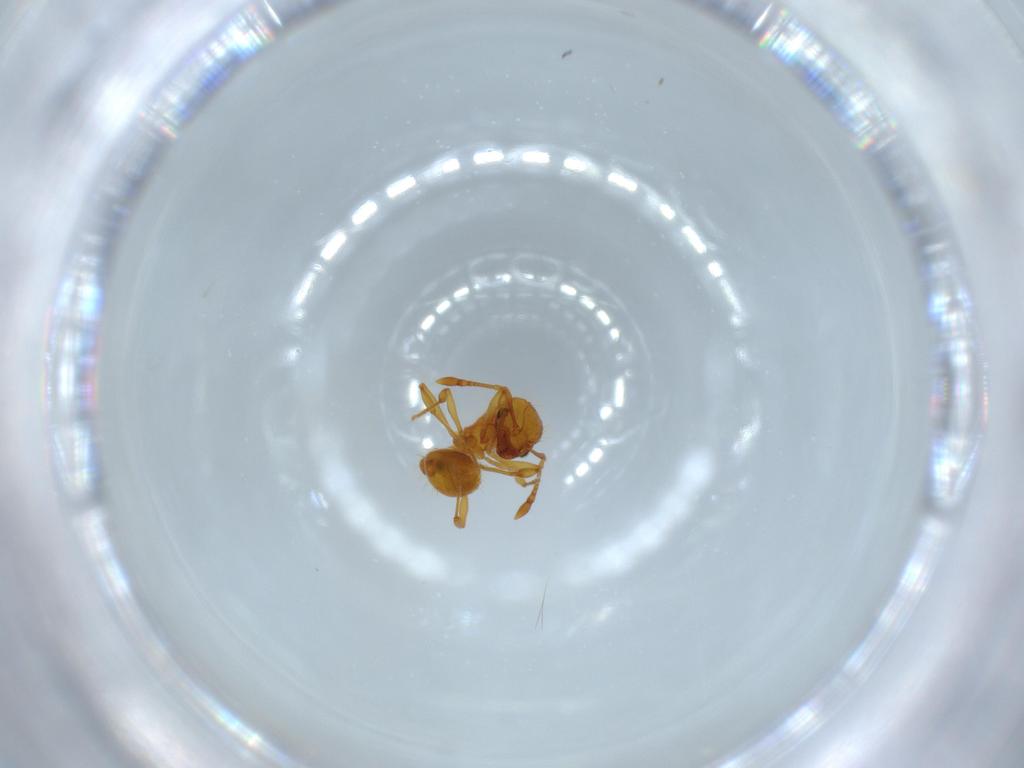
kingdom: Animalia
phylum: Arthropoda
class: Insecta
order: Hymenoptera
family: Formicidae
